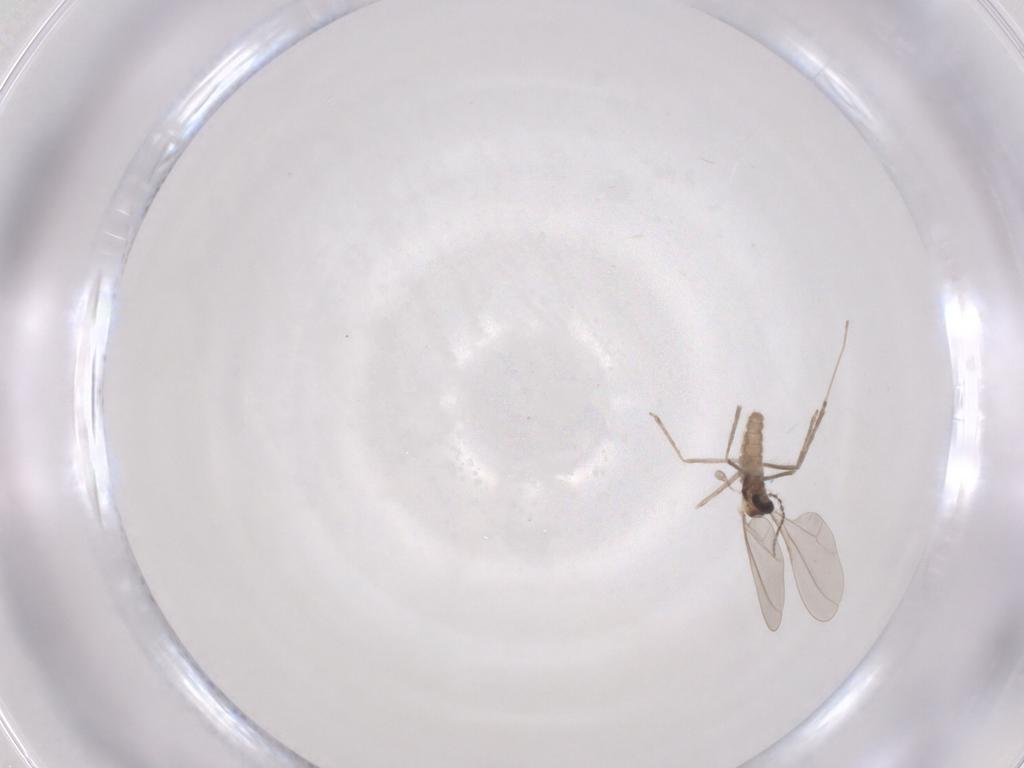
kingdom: Animalia
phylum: Arthropoda
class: Insecta
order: Diptera
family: Cecidomyiidae
